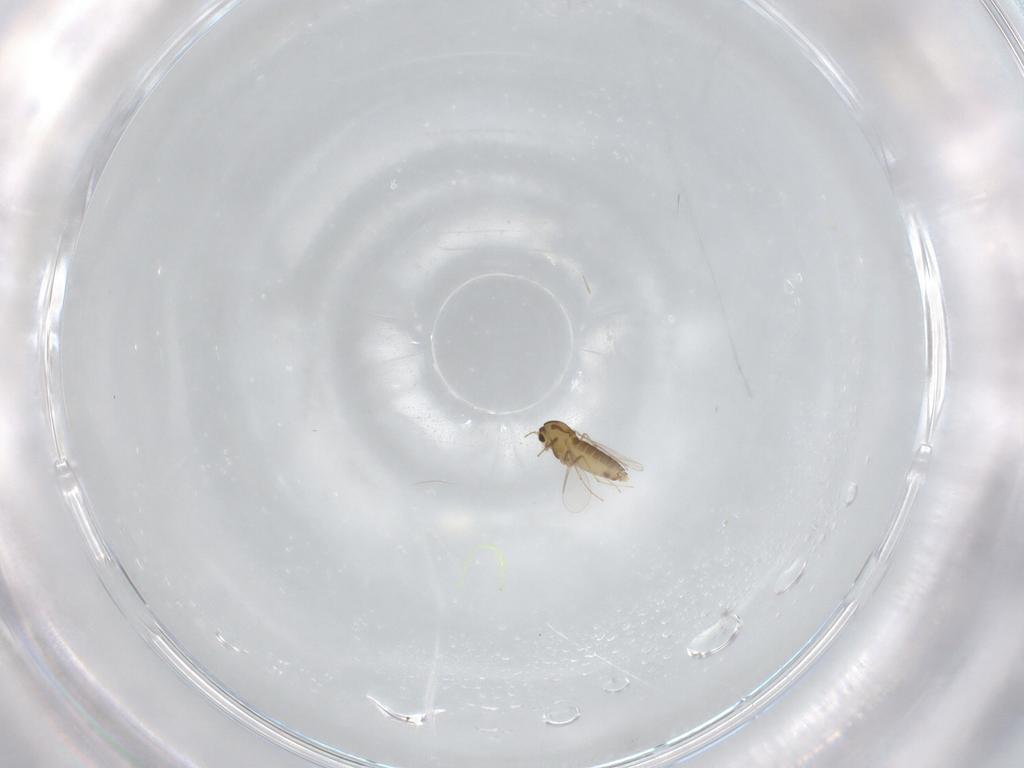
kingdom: Animalia
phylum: Arthropoda
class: Insecta
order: Diptera
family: Chironomidae
